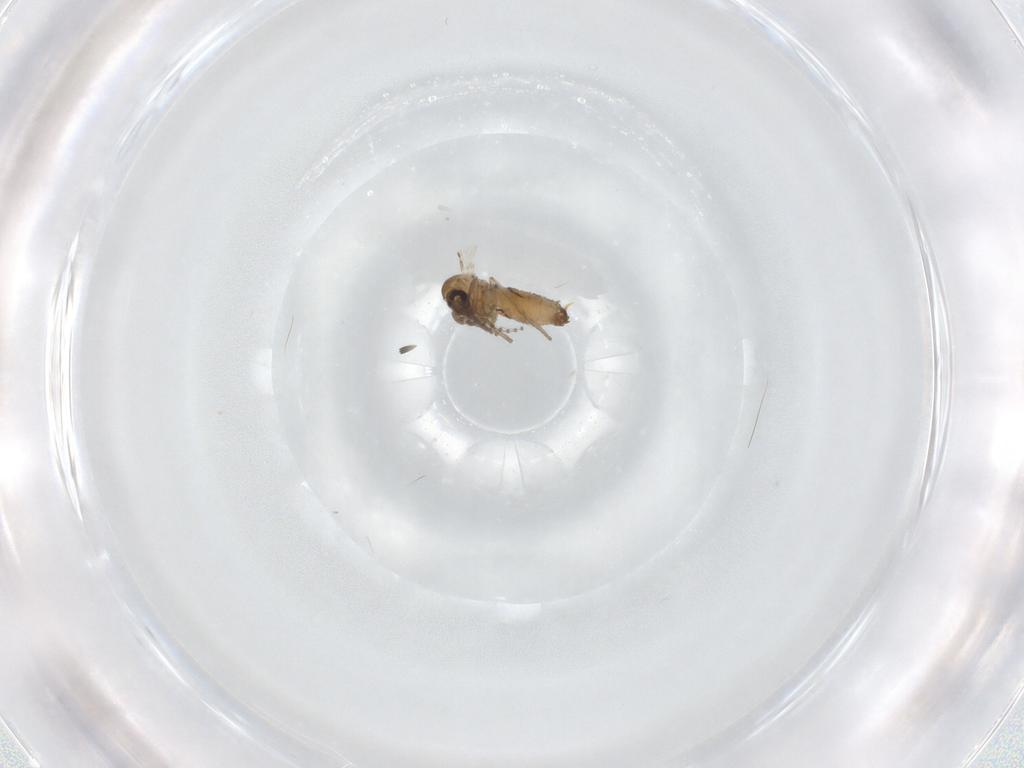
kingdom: Animalia
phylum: Arthropoda
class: Insecta
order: Diptera
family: Psychodidae
